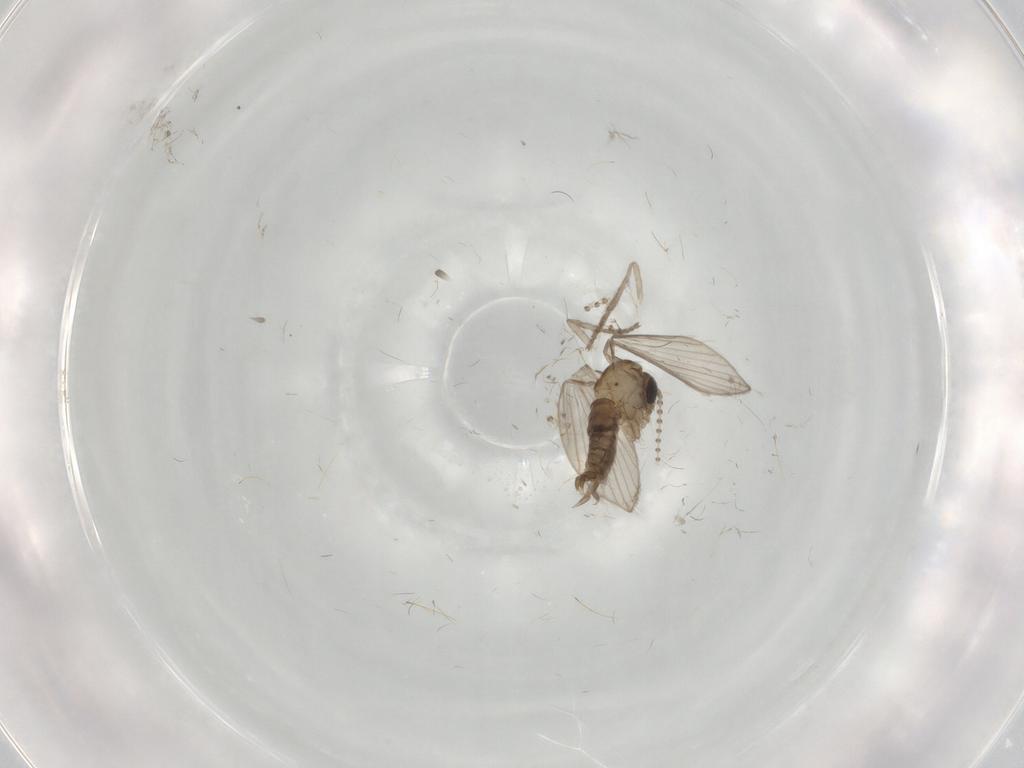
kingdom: Animalia
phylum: Arthropoda
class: Insecta
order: Diptera
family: Psychodidae
